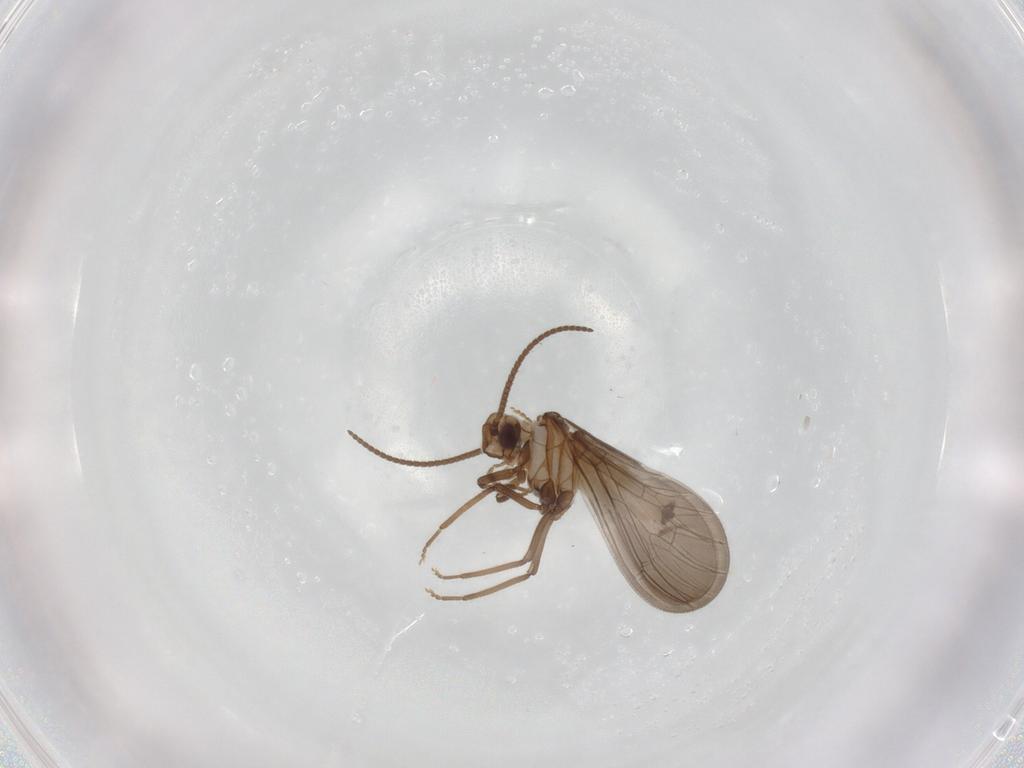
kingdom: Animalia
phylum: Arthropoda
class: Insecta
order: Neuroptera
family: Coniopterygidae
